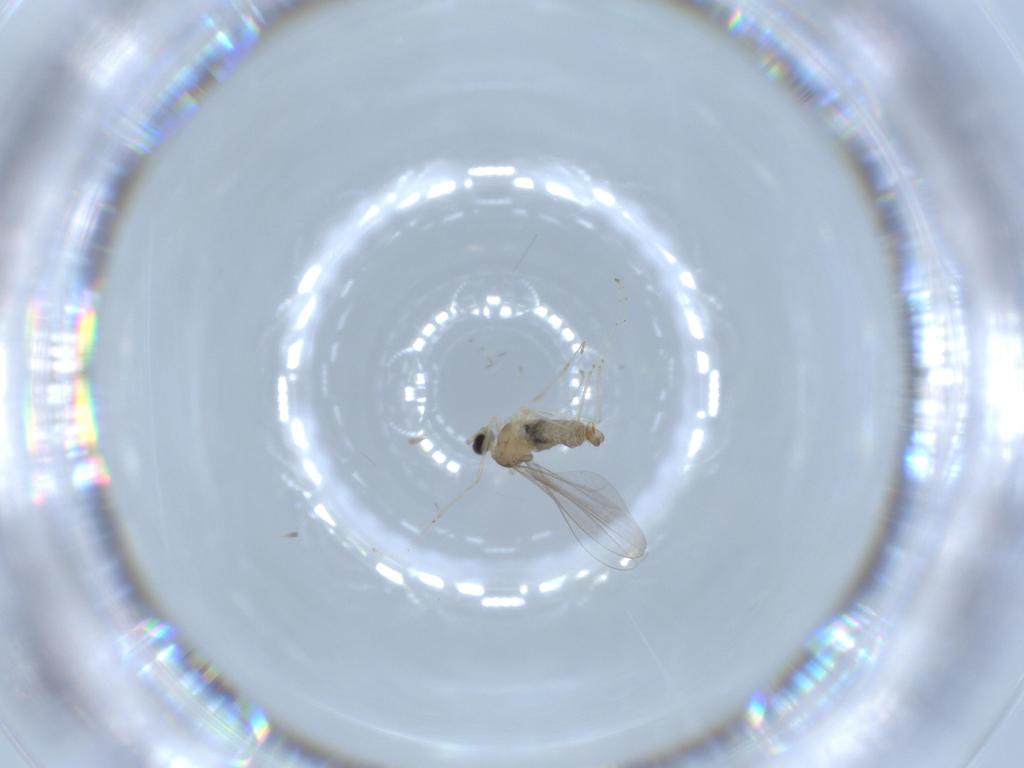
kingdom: Animalia
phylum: Arthropoda
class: Insecta
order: Diptera
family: Cecidomyiidae
